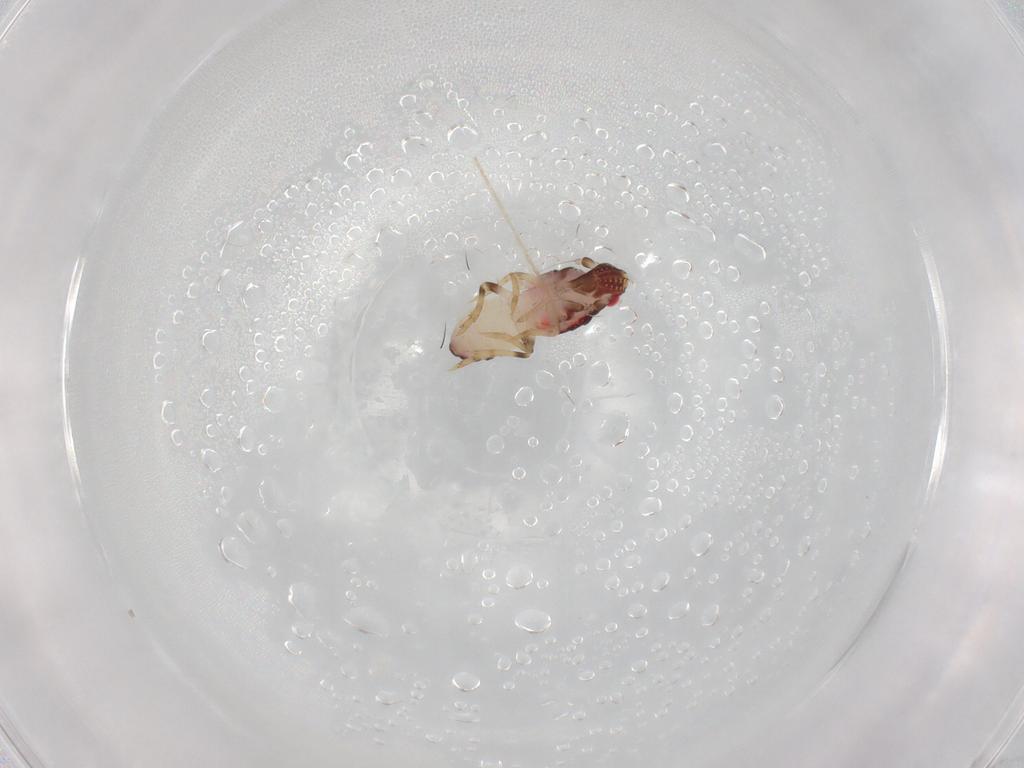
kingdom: Animalia
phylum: Arthropoda
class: Insecta
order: Hemiptera
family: Delphacidae
